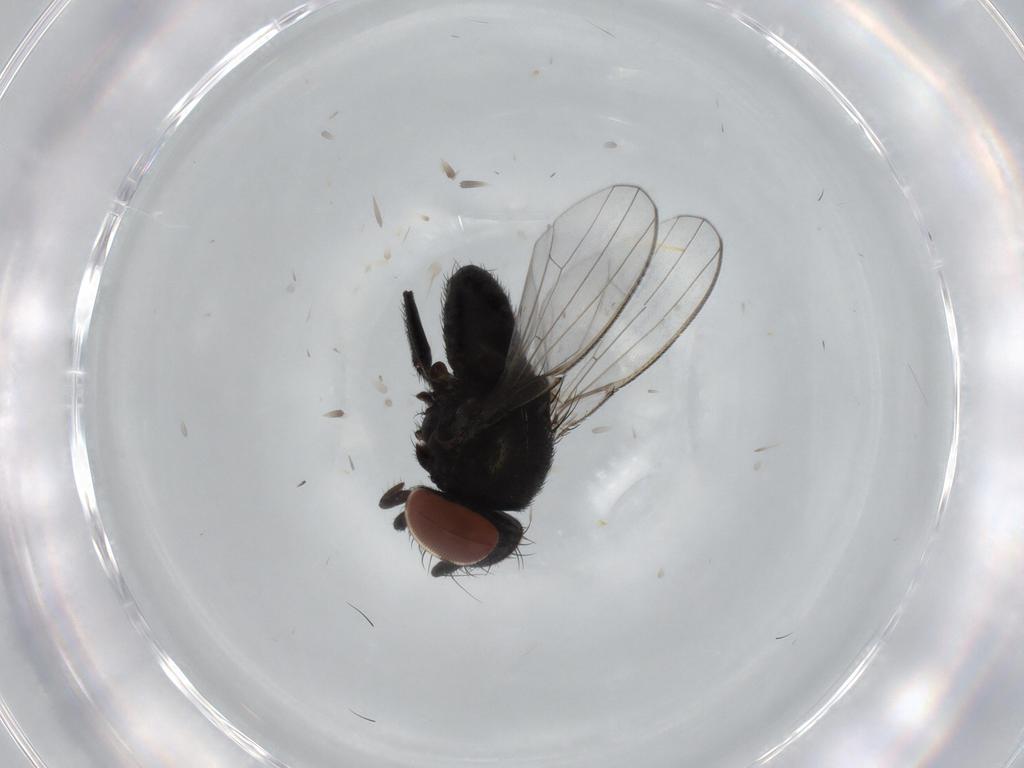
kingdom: Animalia
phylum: Arthropoda
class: Insecta
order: Diptera
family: Milichiidae
